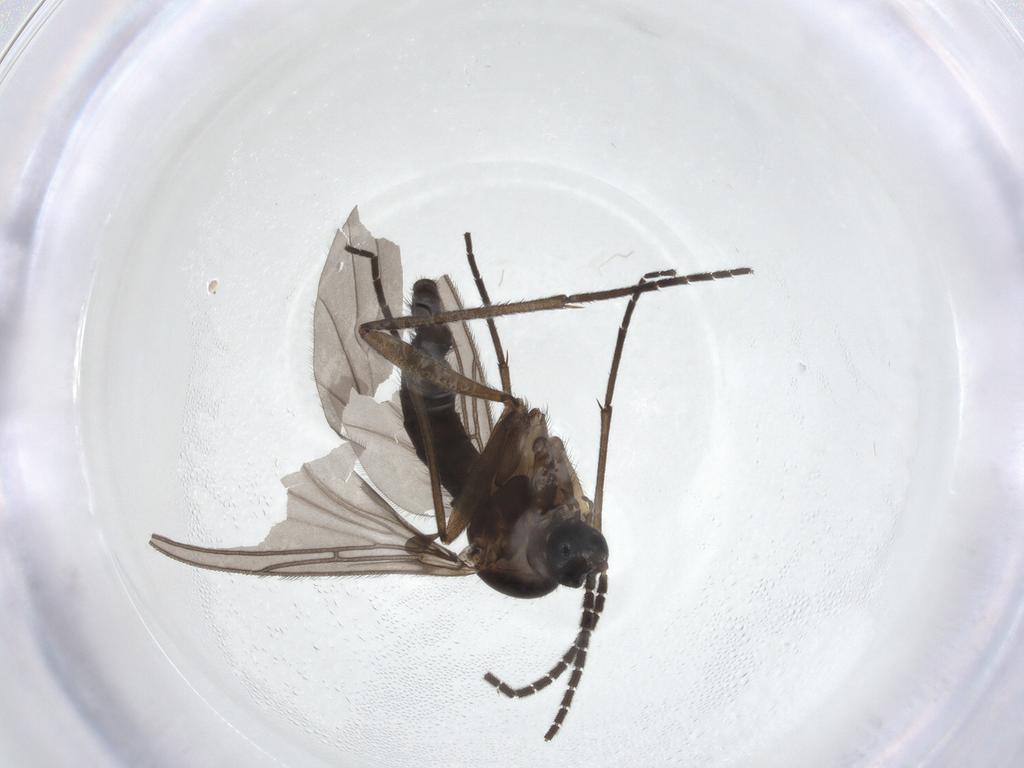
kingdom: Animalia
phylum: Arthropoda
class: Insecta
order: Diptera
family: Sciaridae
